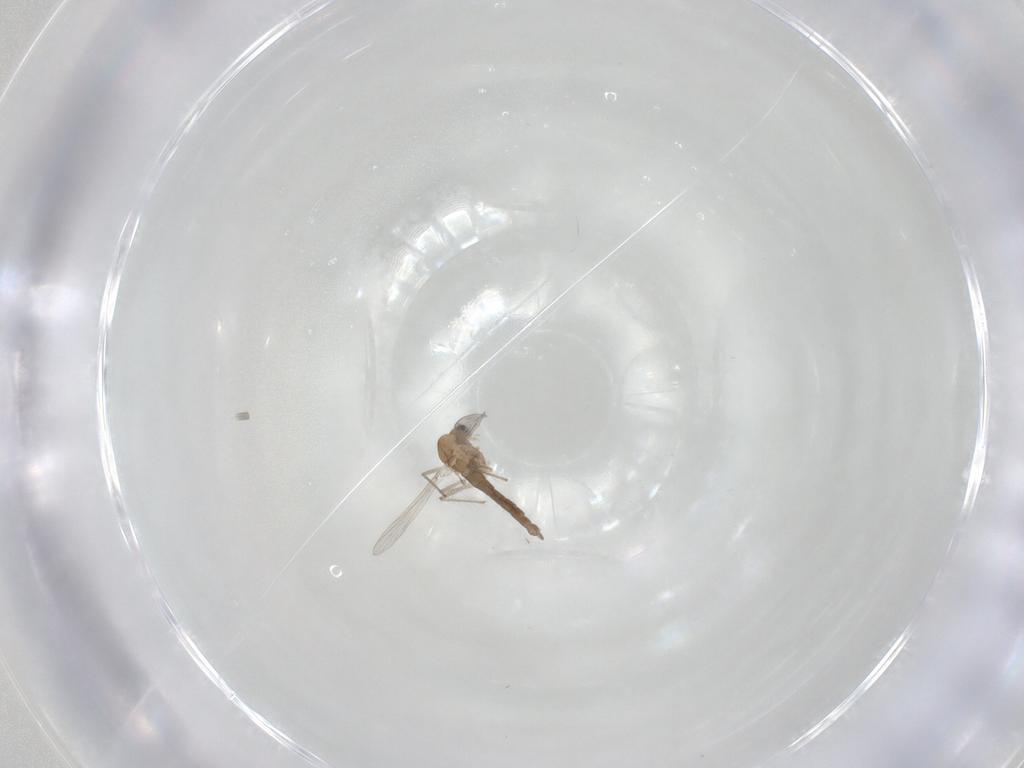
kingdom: Animalia
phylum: Arthropoda
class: Insecta
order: Diptera
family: Chironomidae
